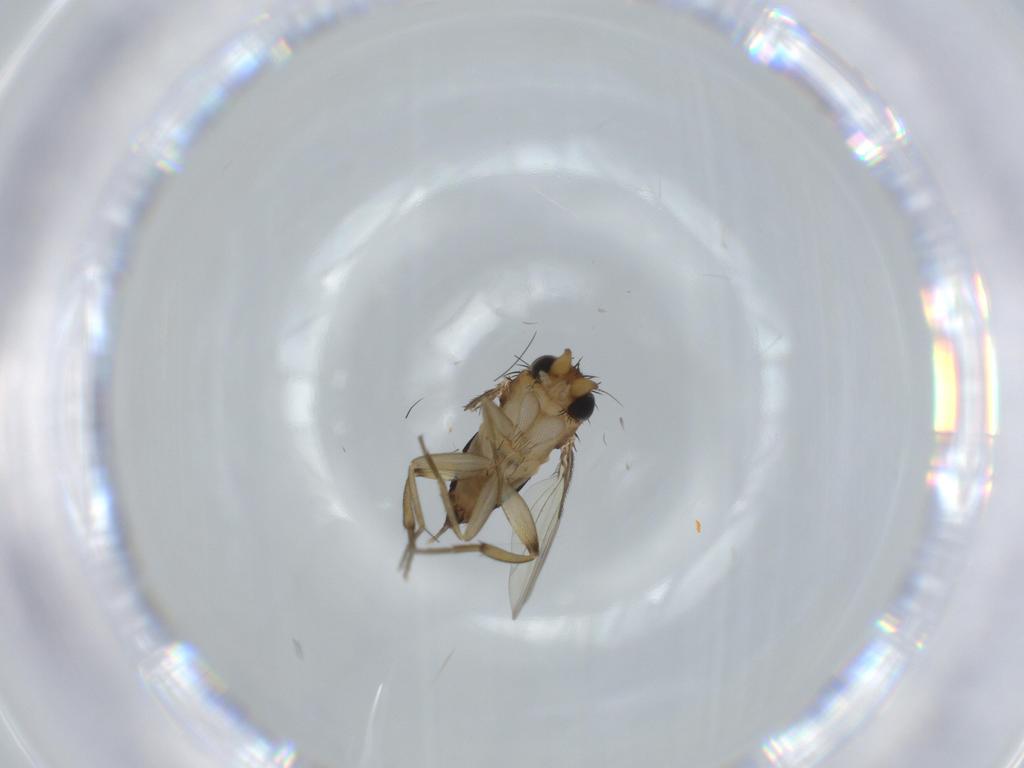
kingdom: Animalia
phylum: Arthropoda
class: Insecta
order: Diptera
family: Phoridae
